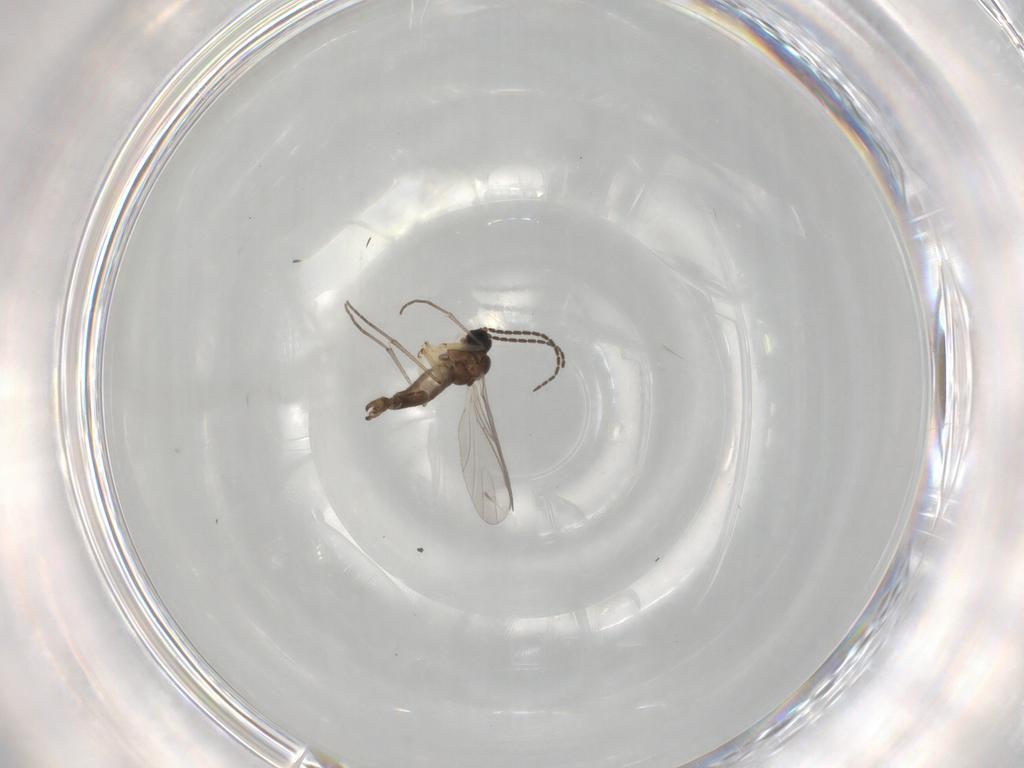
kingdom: Animalia
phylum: Arthropoda
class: Insecta
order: Diptera
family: Sciaridae
